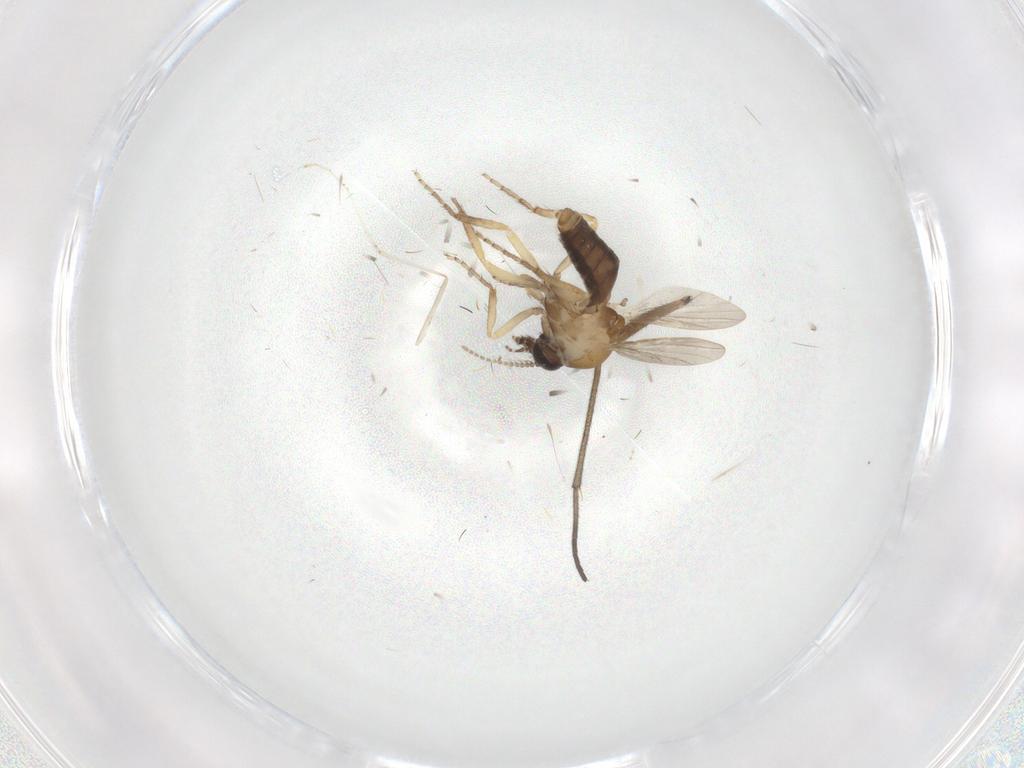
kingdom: Animalia
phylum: Arthropoda
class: Insecta
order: Diptera
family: Ceratopogonidae
